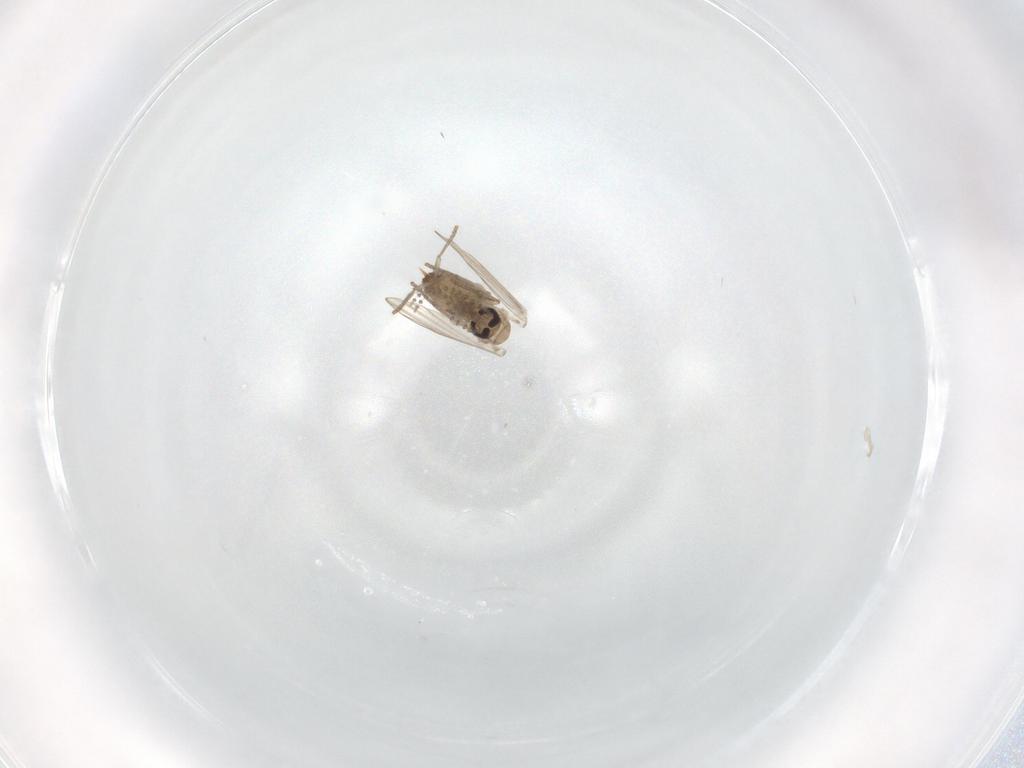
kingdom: Animalia
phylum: Arthropoda
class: Insecta
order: Diptera
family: Psychodidae
